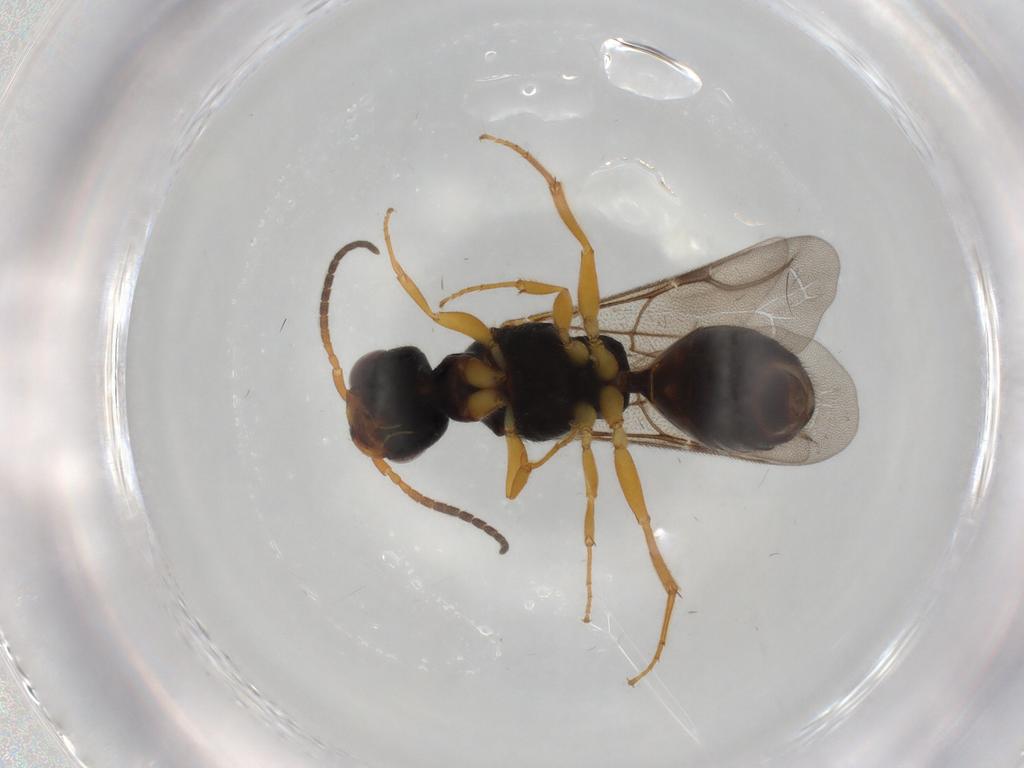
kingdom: Animalia
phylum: Arthropoda
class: Insecta
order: Hymenoptera
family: Bethylidae
